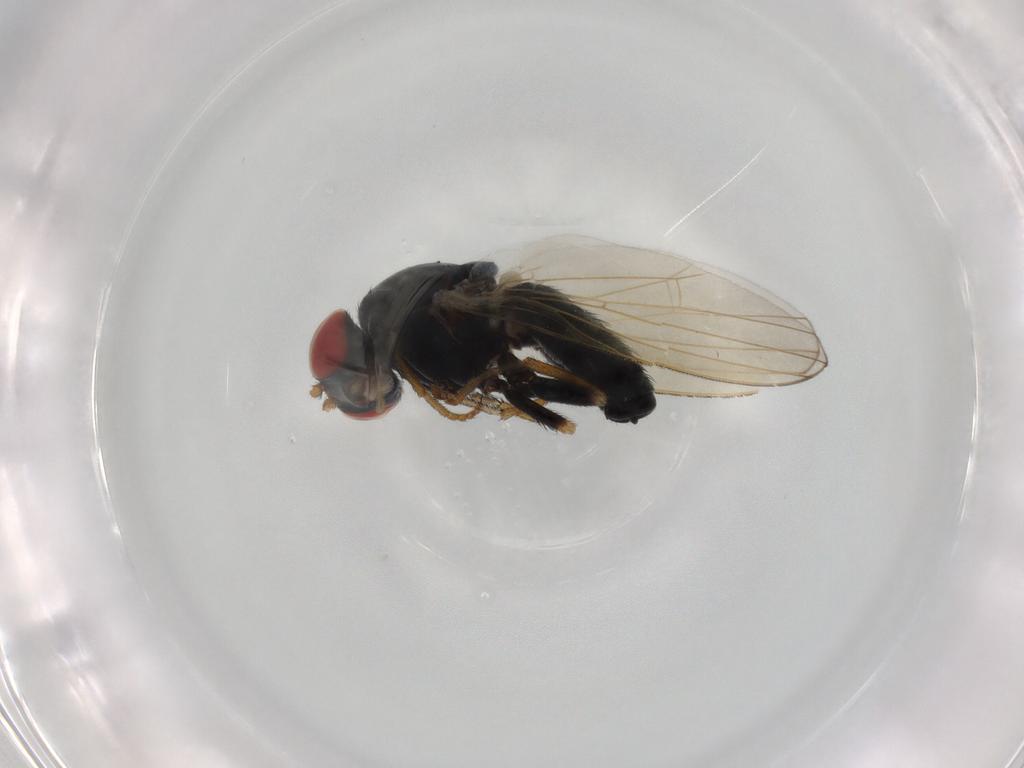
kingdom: Animalia
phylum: Arthropoda
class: Insecta
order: Diptera
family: Chamaemyiidae
